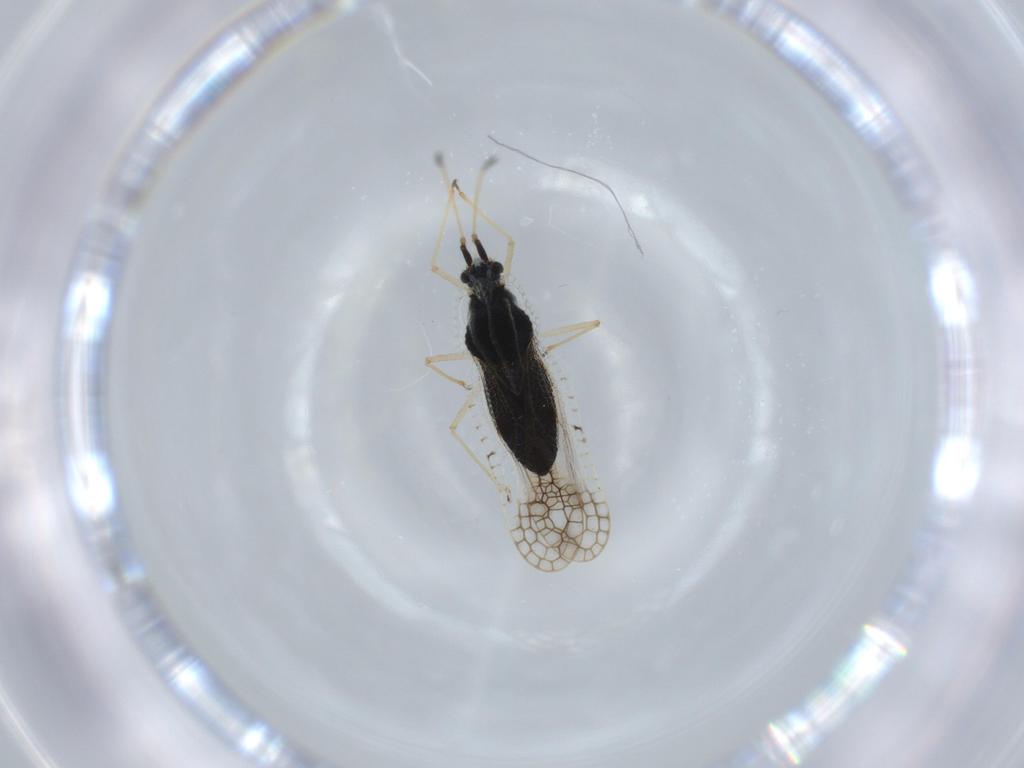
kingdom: Animalia
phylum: Arthropoda
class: Insecta
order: Hemiptera
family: Tingidae
